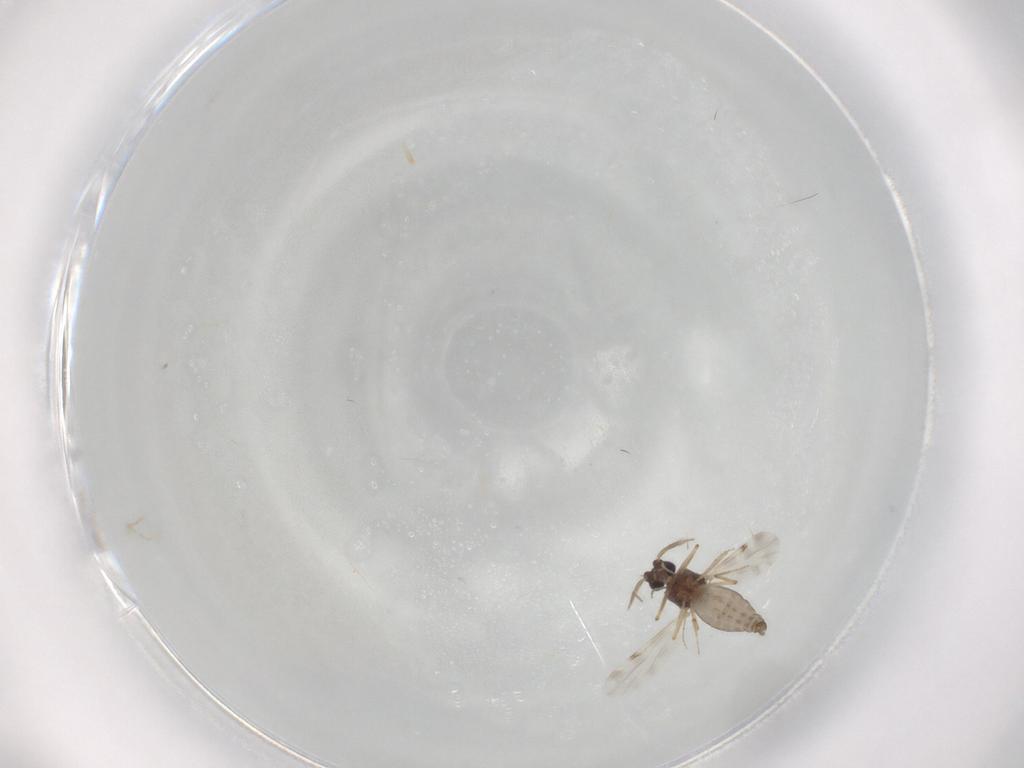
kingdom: Animalia
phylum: Arthropoda
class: Insecta
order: Diptera
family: Ceratopogonidae
